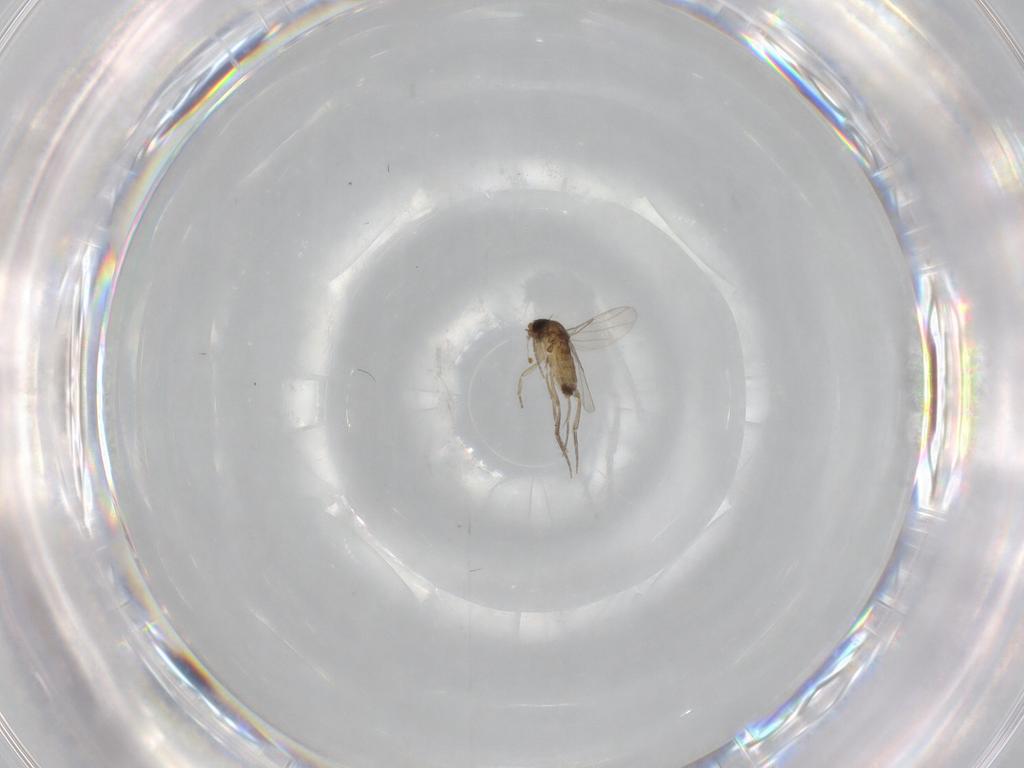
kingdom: Animalia
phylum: Arthropoda
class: Insecta
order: Diptera
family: Phoridae
